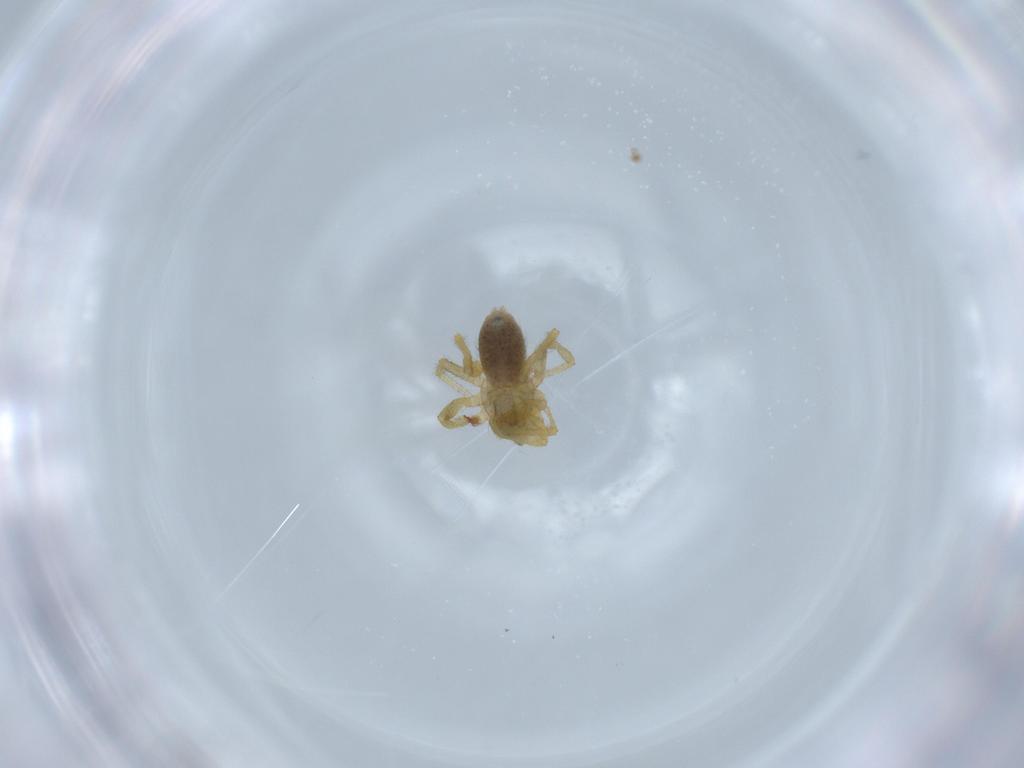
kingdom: Animalia
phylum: Arthropoda
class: Arachnida
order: Araneae
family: Linyphiidae
